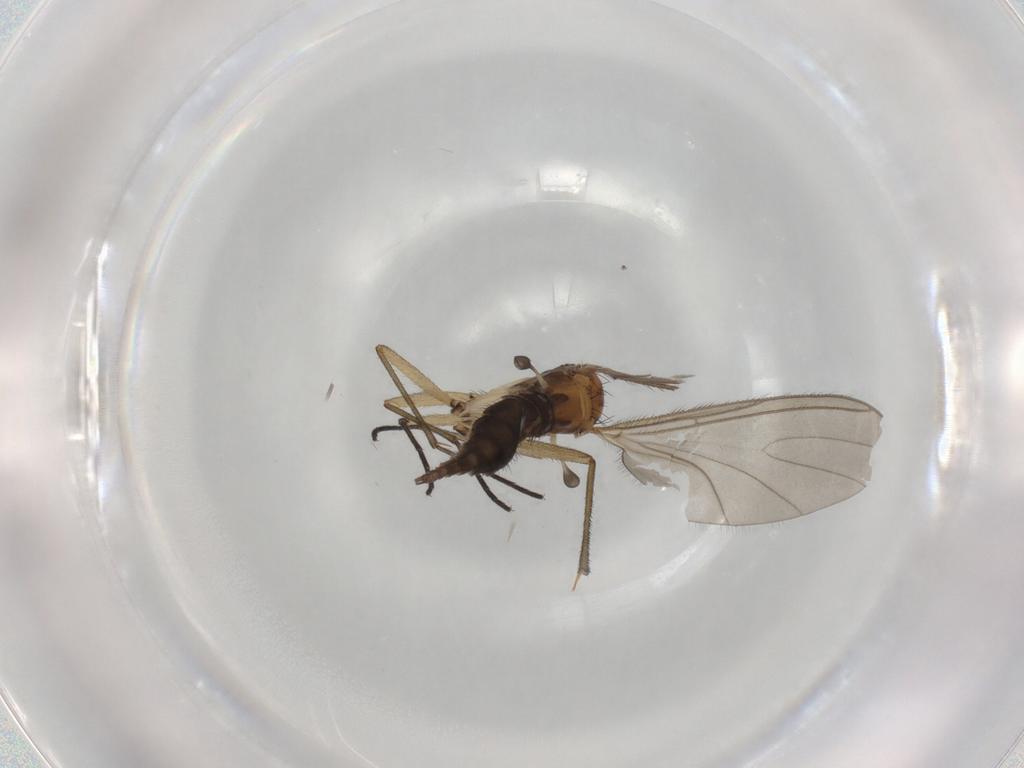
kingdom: Animalia
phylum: Arthropoda
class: Insecta
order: Diptera
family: Sciaridae
